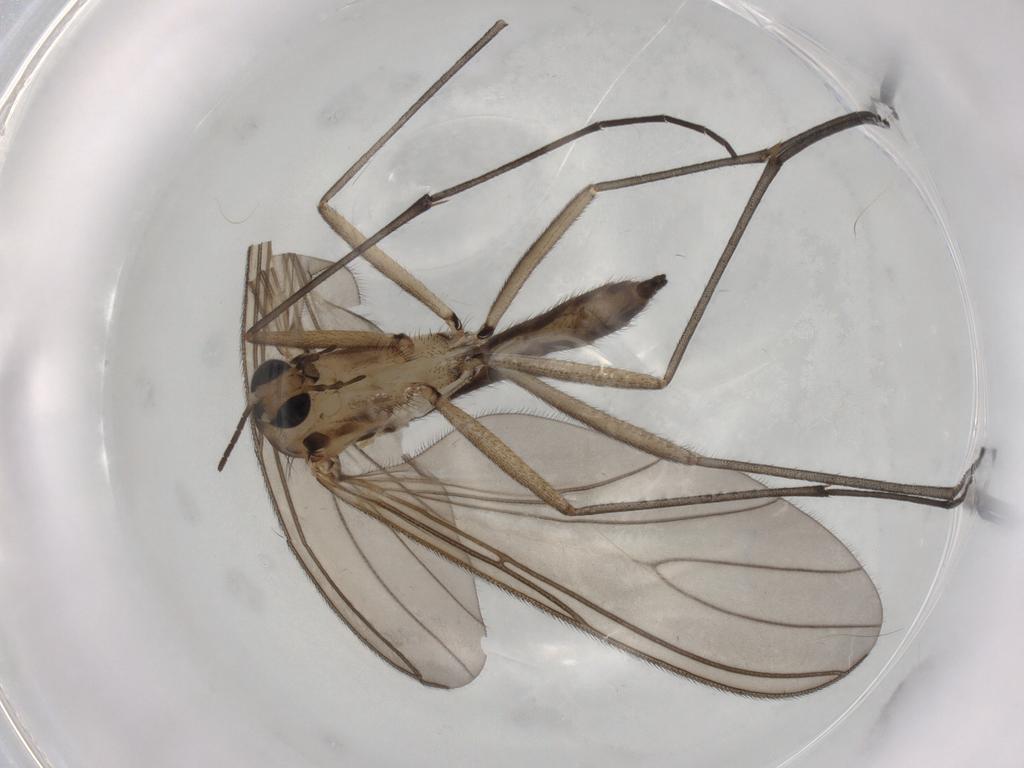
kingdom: Animalia
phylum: Arthropoda
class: Insecta
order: Diptera
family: Sciaridae
